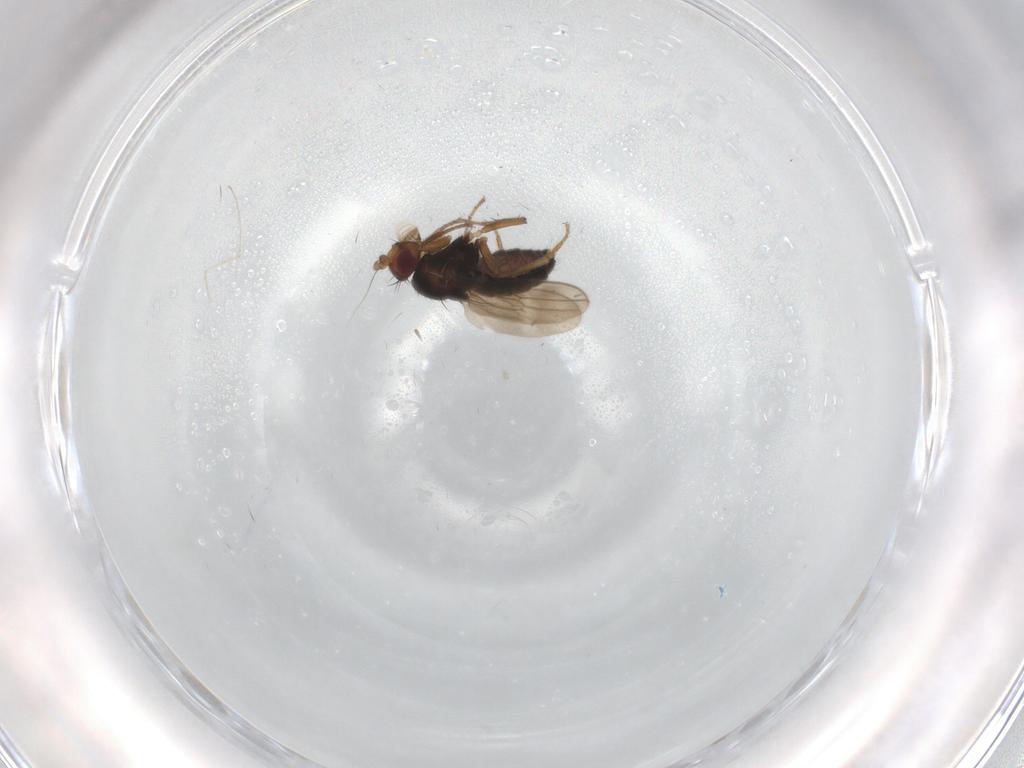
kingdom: Animalia
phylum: Arthropoda
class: Insecta
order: Diptera
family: Sphaeroceridae
